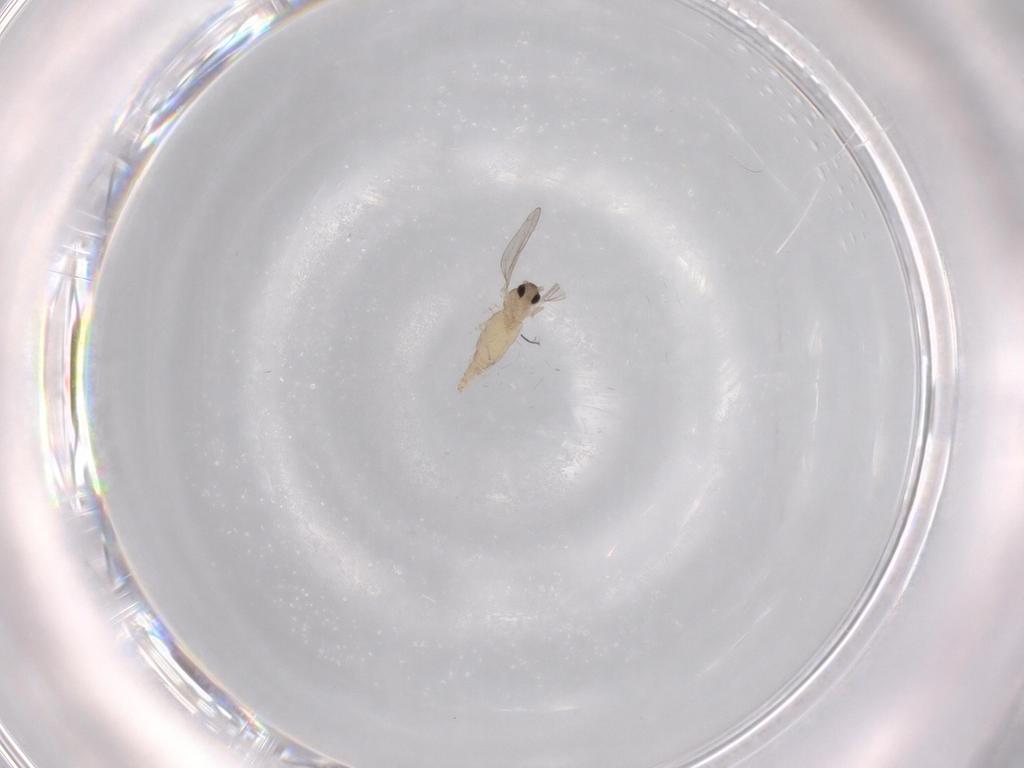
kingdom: Animalia
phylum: Arthropoda
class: Insecta
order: Diptera
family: Cecidomyiidae
